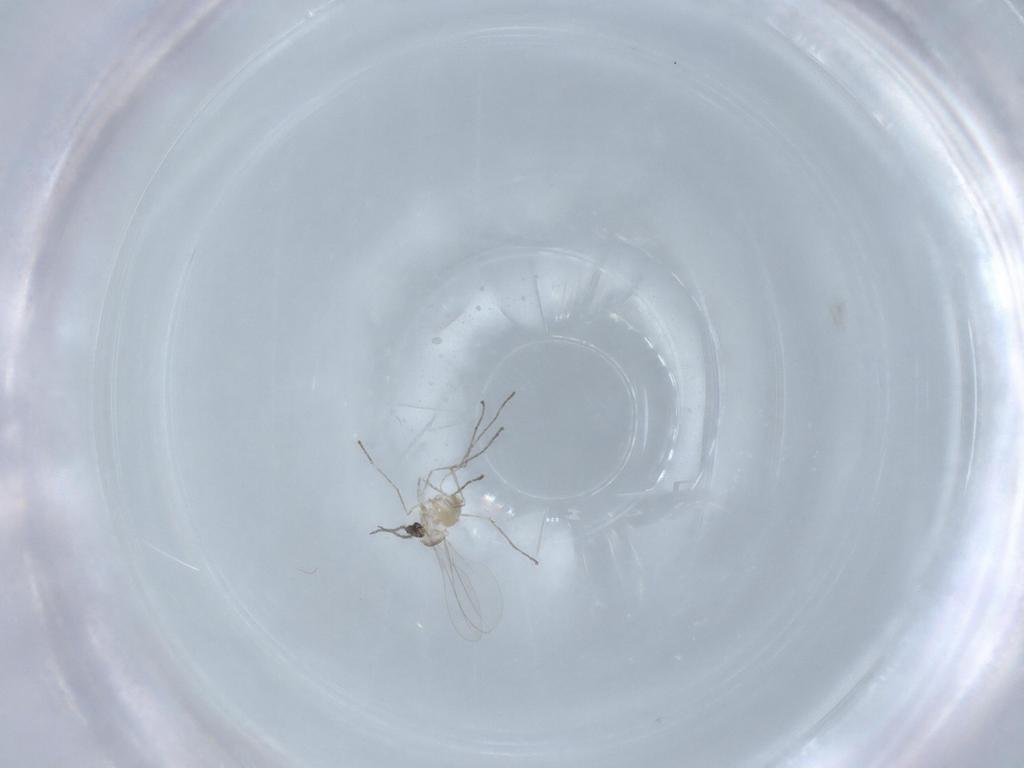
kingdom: Animalia
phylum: Arthropoda
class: Insecta
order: Diptera
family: Cecidomyiidae
